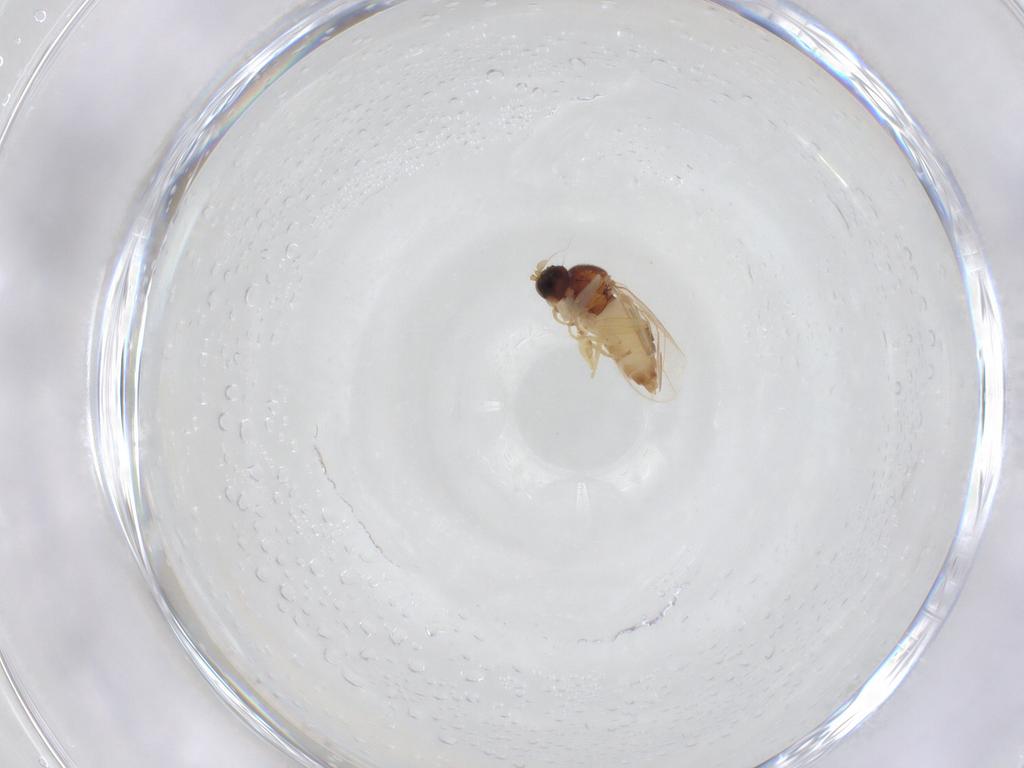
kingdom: Animalia
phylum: Arthropoda
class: Insecta
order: Diptera
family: Hybotidae
